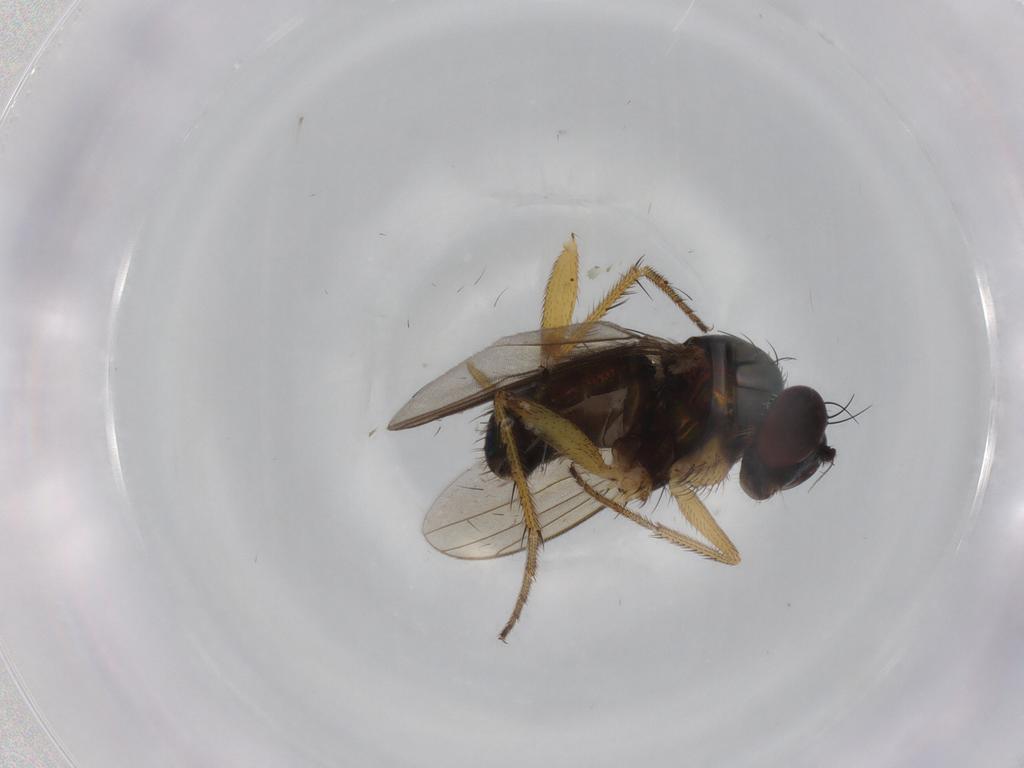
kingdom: Animalia
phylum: Arthropoda
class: Insecta
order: Diptera
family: Dolichopodidae
